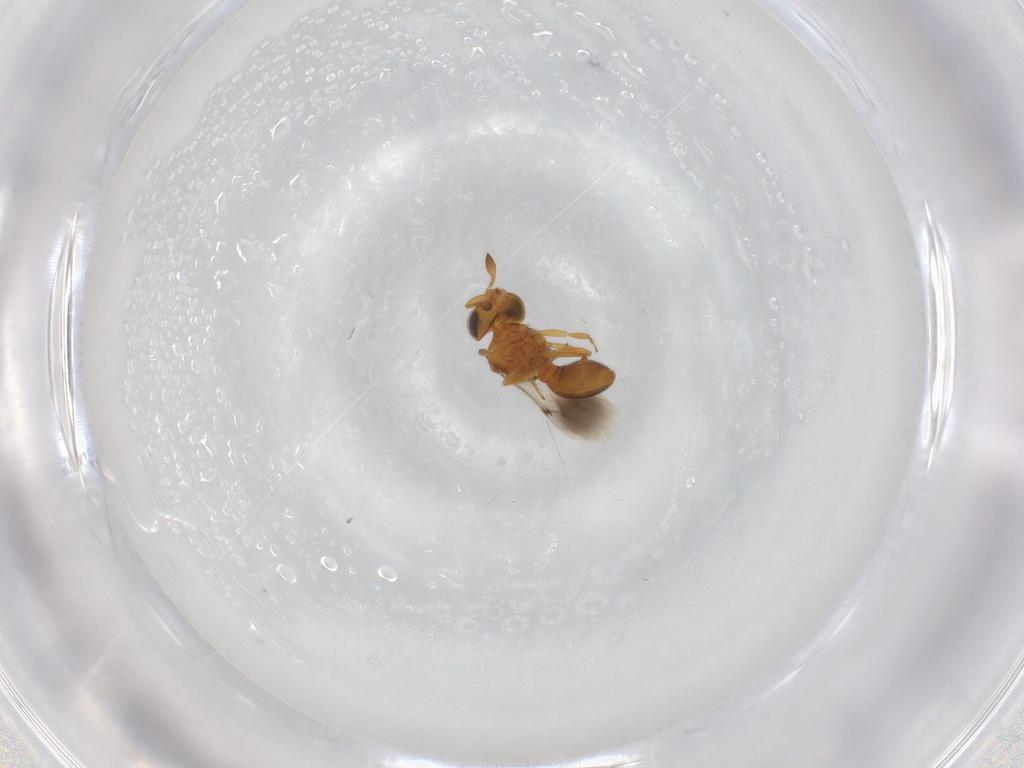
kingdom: Animalia
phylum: Arthropoda
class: Insecta
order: Hymenoptera
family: Scelionidae
